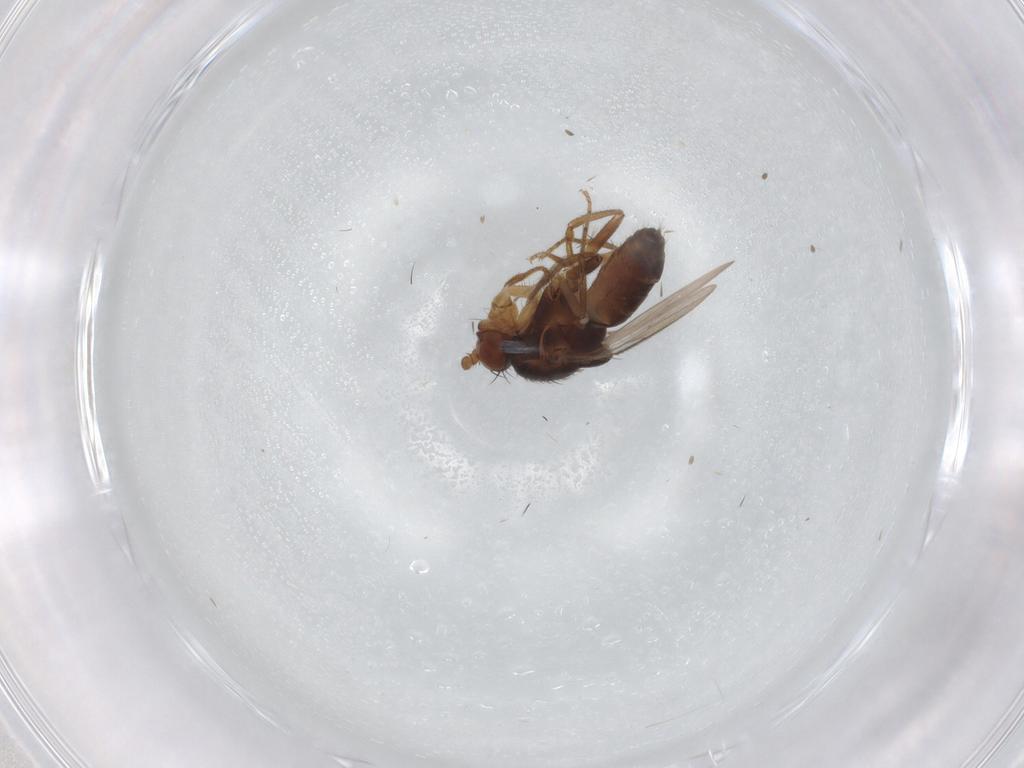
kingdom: Animalia
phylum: Arthropoda
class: Insecta
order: Diptera
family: Sphaeroceridae
